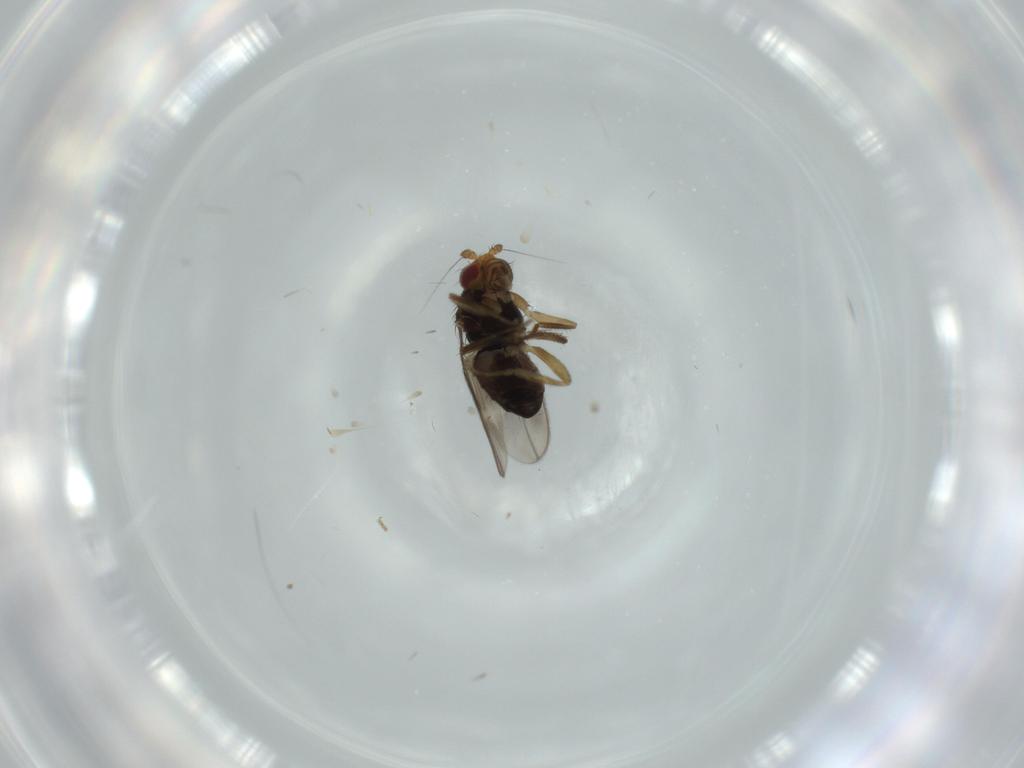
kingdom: Animalia
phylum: Arthropoda
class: Insecta
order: Diptera
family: Sphaeroceridae
